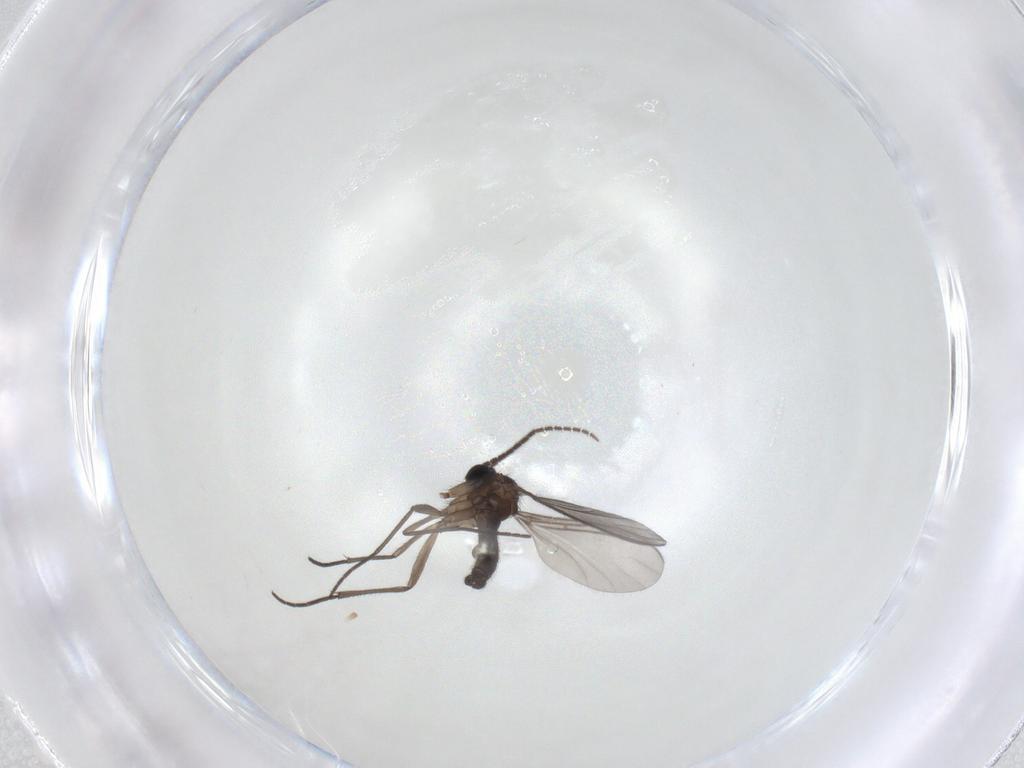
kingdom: Animalia
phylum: Arthropoda
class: Insecta
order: Diptera
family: Sciaridae
